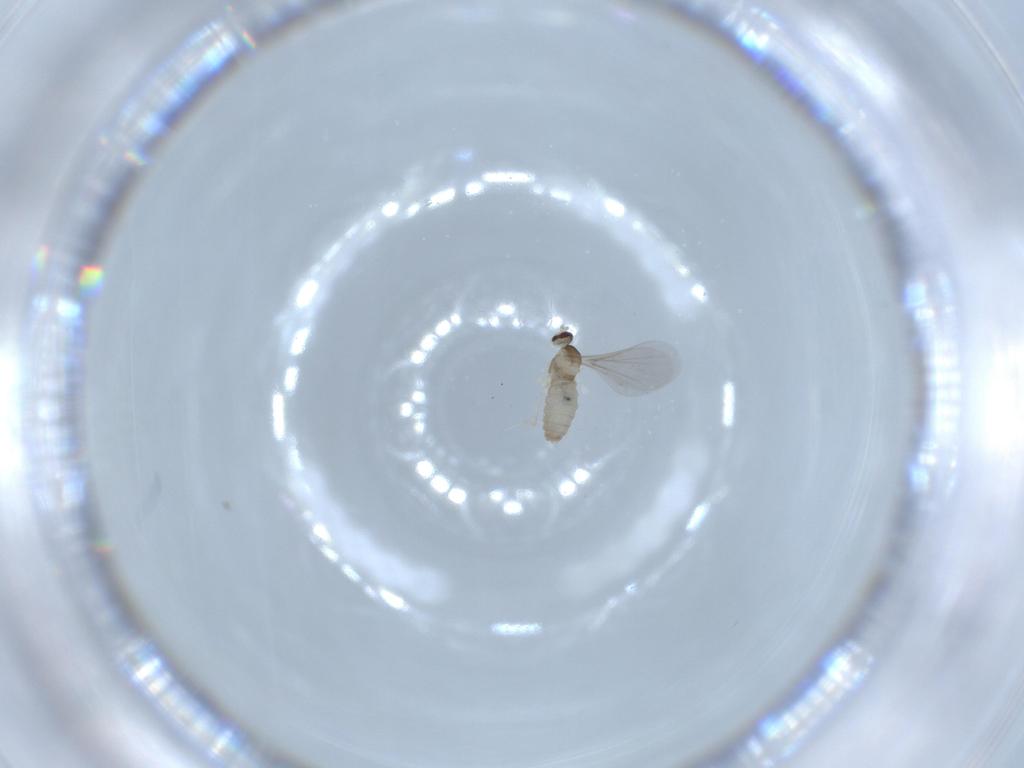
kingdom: Animalia
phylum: Arthropoda
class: Insecta
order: Diptera
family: Cecidomyiidae
